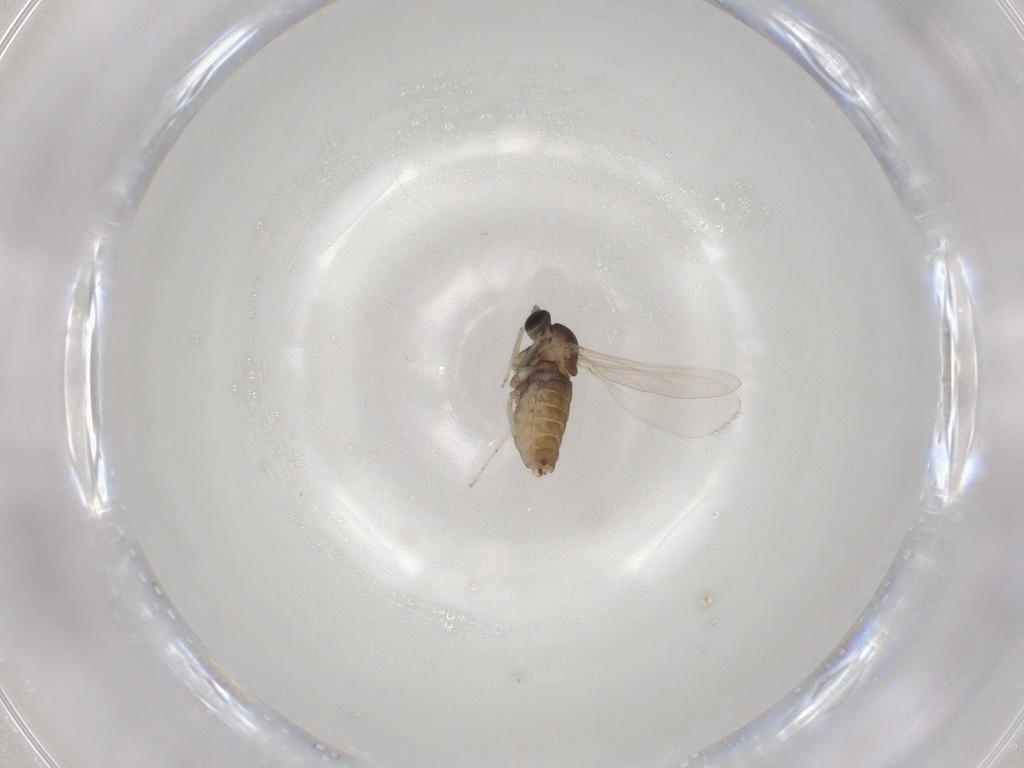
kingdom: Animalia
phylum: Arthropoda
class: Insecta
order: Diptera
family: Cecidomyiidae
